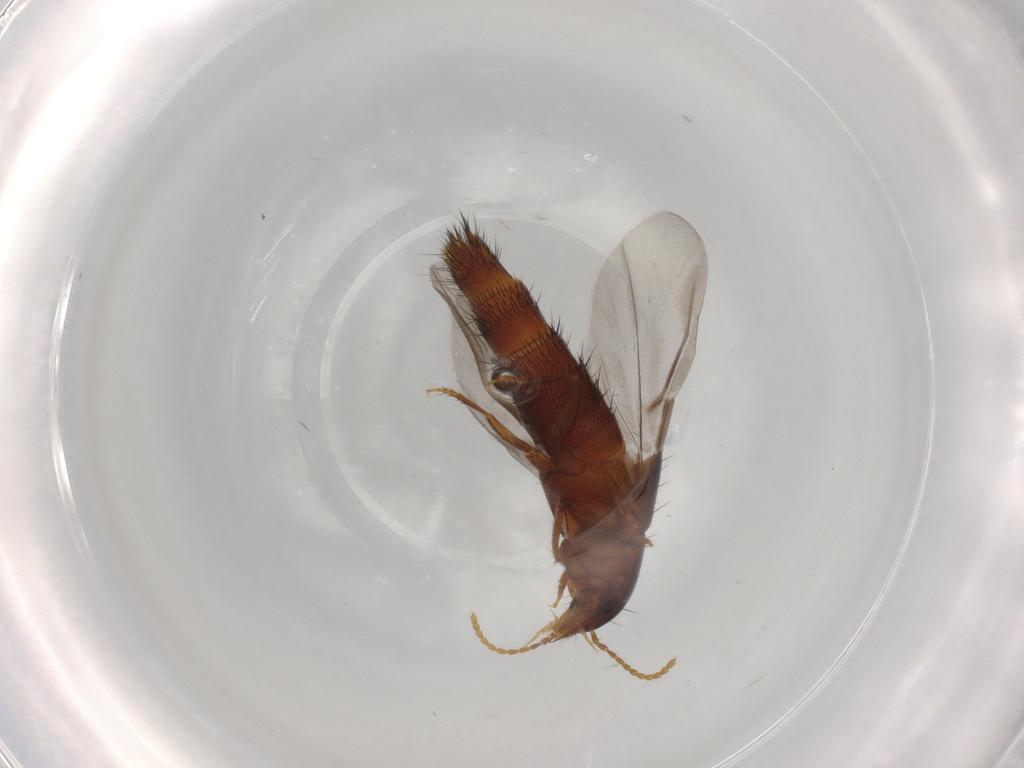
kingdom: Animalia
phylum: Arthropoda
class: Insecta
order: Coleoptera
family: Staphylinidae
